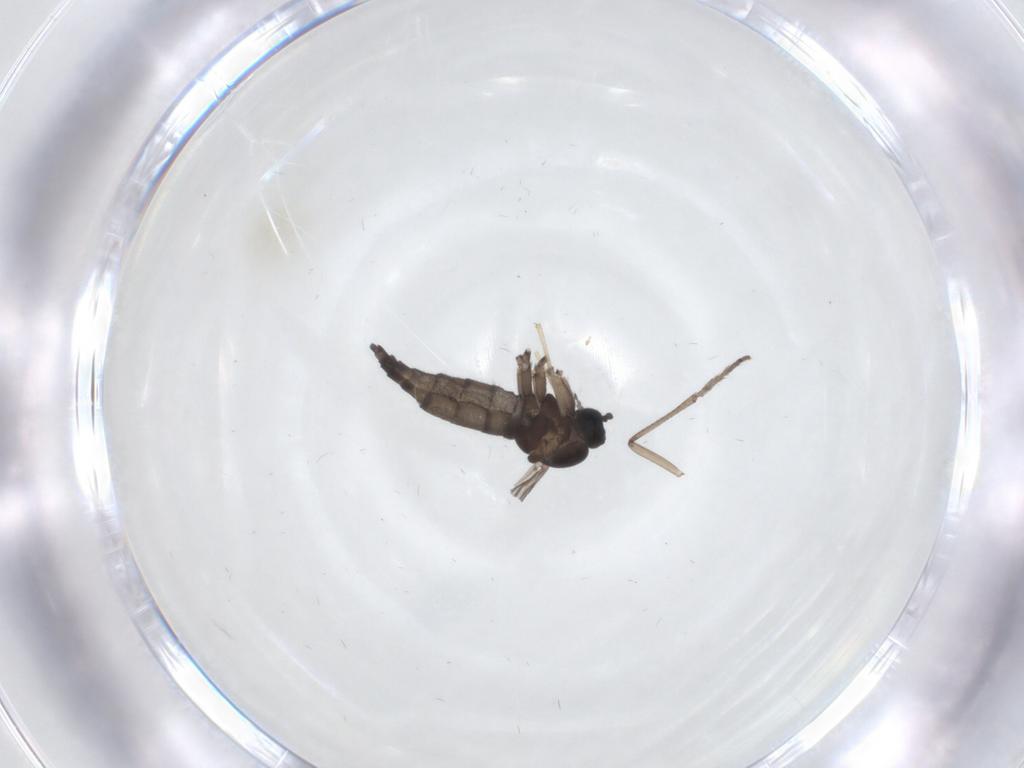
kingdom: Animalia
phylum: Arthropoda
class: Insecta
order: Diptera
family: Sciaridae
